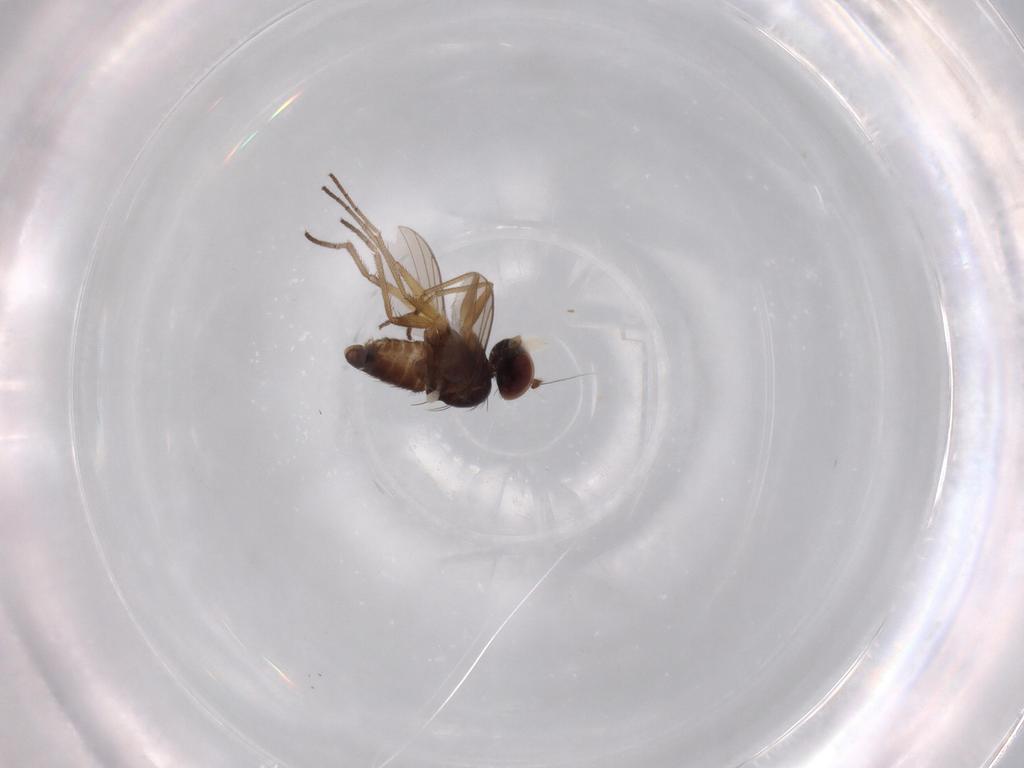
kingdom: Animalia
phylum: Arthropoda
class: Insecta
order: Diptera
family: Dolichopodidae
